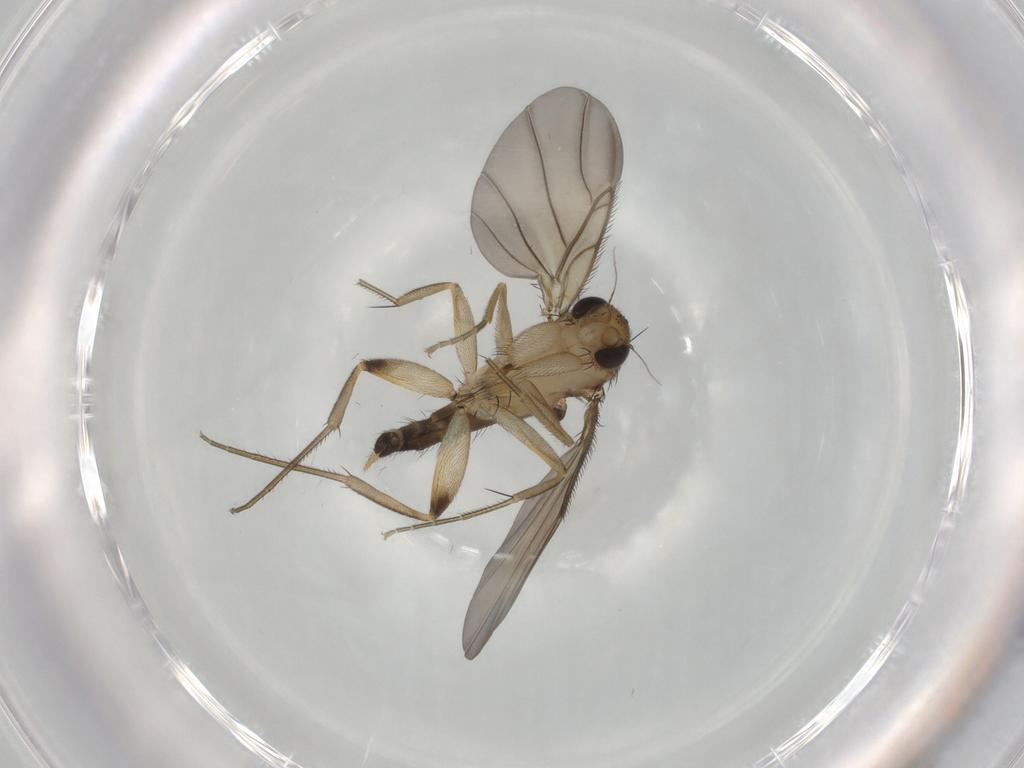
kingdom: Animalia
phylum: Arthropoda
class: Insecta
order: Diptera
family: Phoridae
